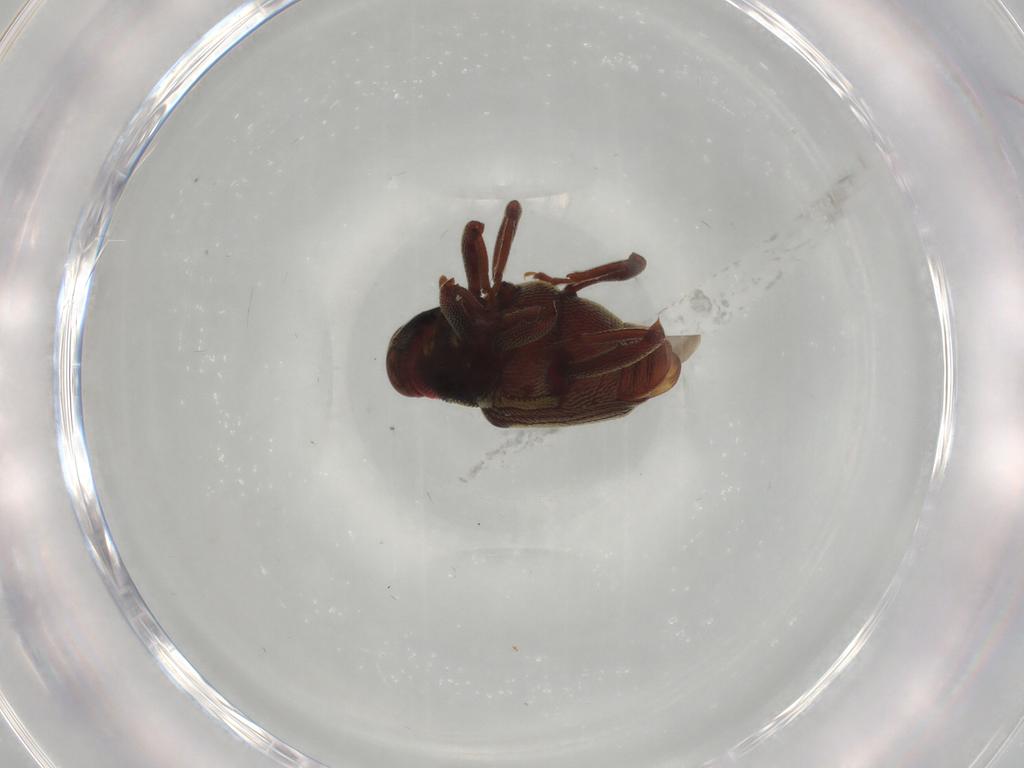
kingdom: Animalia
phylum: Arthropoda
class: Insecta
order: Coleoptera
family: Curculionidae
